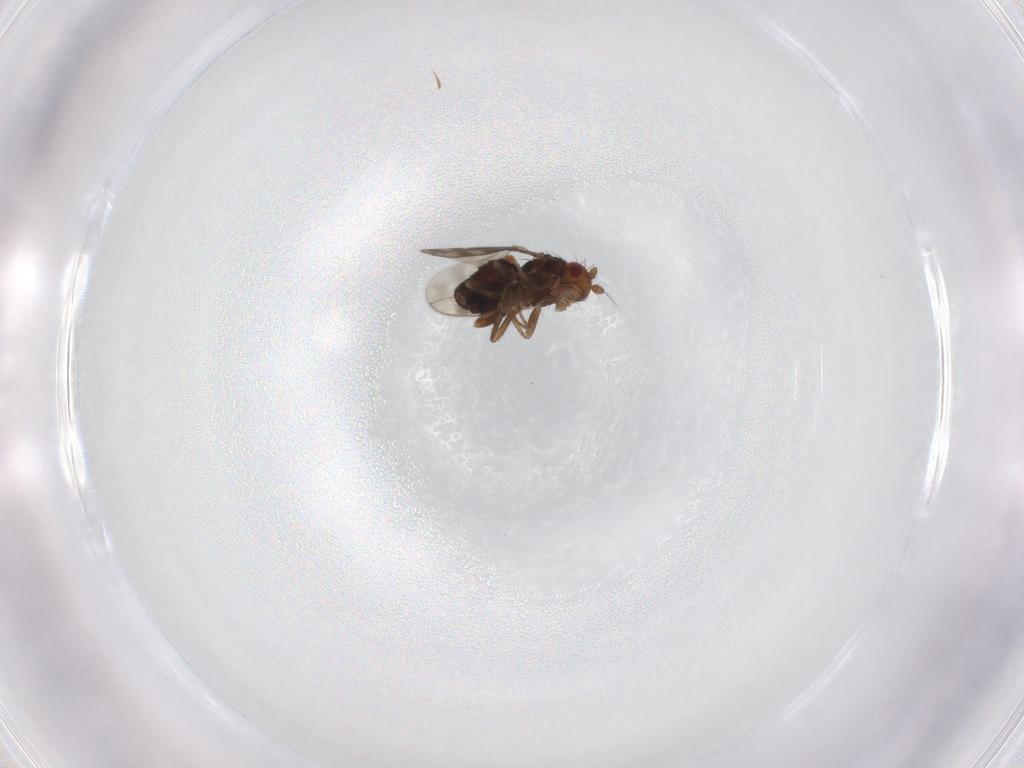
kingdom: Animalia
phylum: Arthropoda
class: Insecta
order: Diptera
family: Sphaeroceridae
